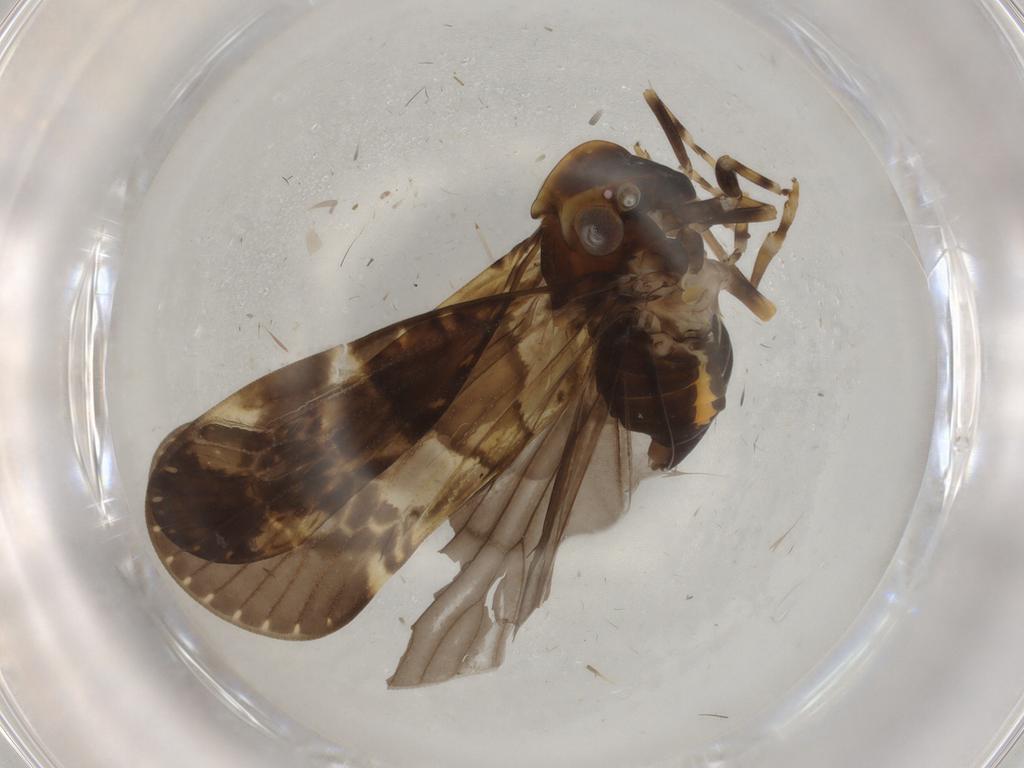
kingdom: Animalia
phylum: Arthropoda
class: Insecta
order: Hemiptera
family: Cixiidae
